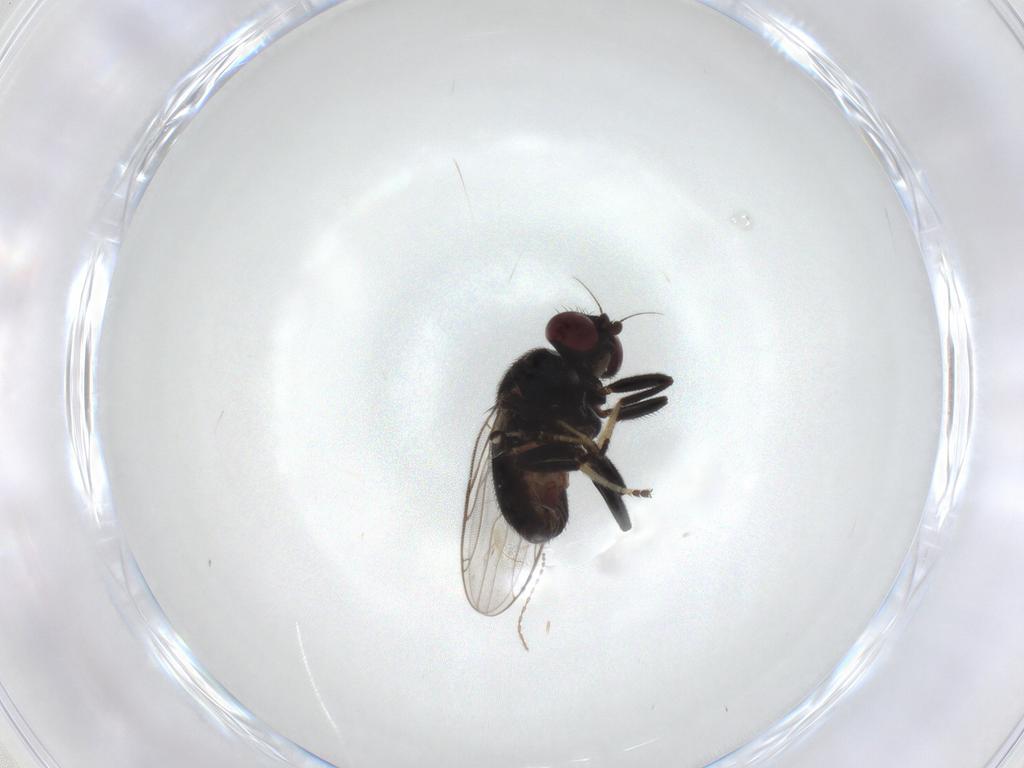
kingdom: Animalia
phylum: Arthropoda
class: Insecta
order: Diptera
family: Chloropidae
